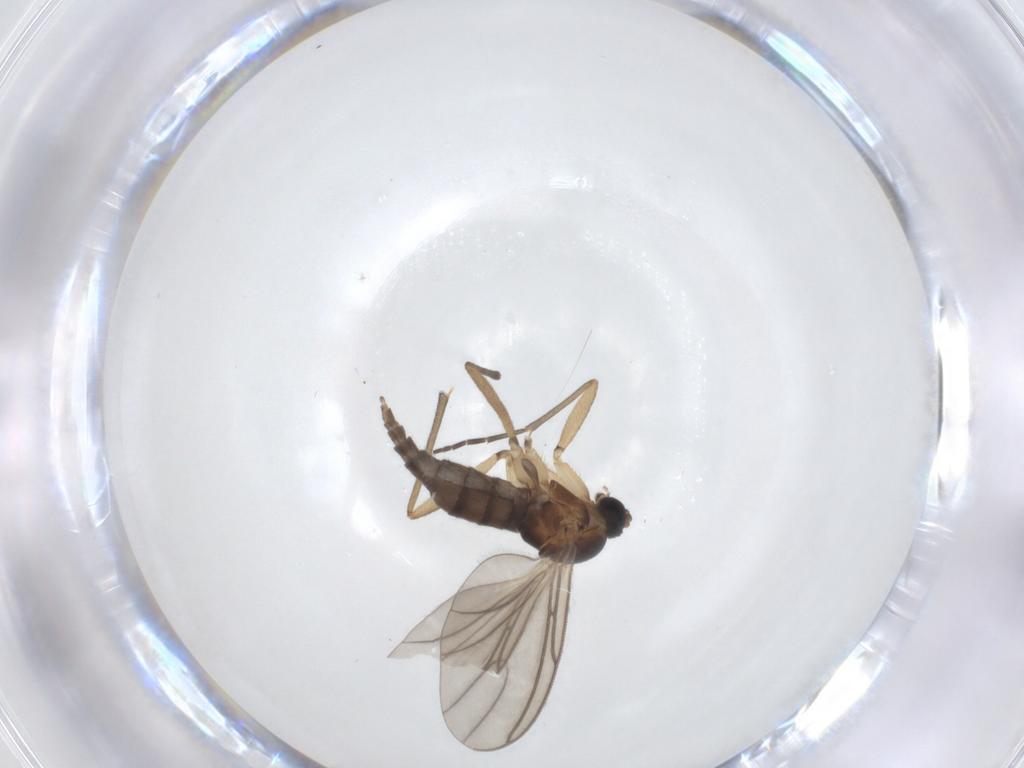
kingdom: Animalia
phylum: Arthropoda
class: Insecta
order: Diptera
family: Sciaridae
